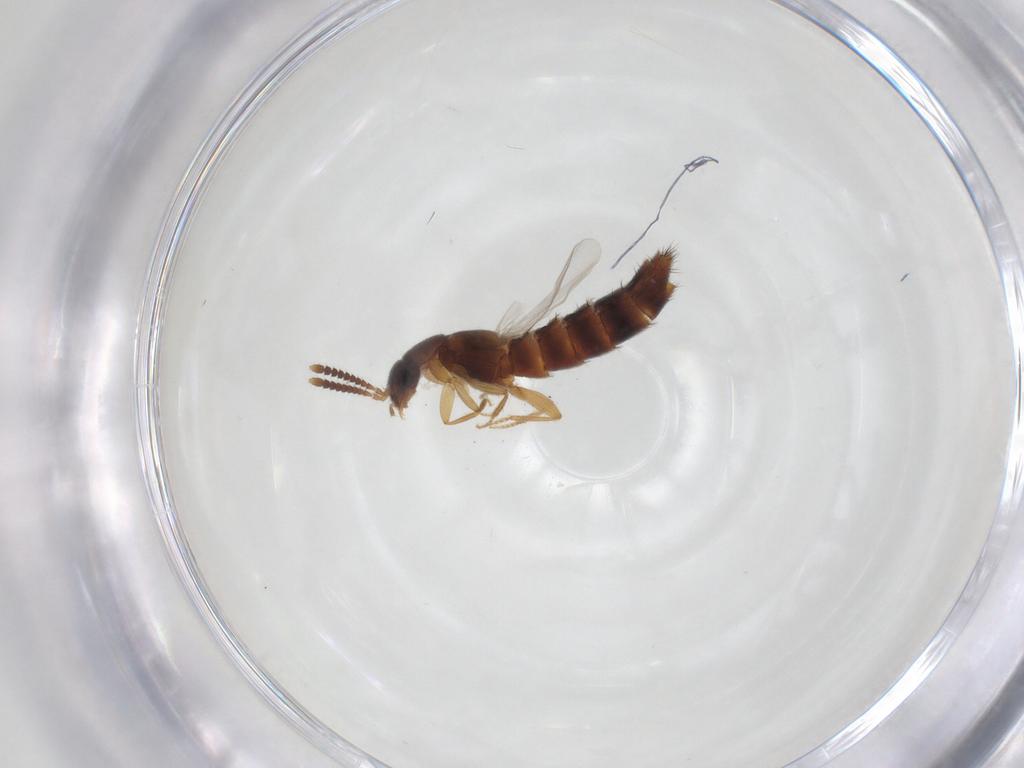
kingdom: Animalia
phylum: Arthropoda
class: Insecta
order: Coleoptera
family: Staphylinidae
